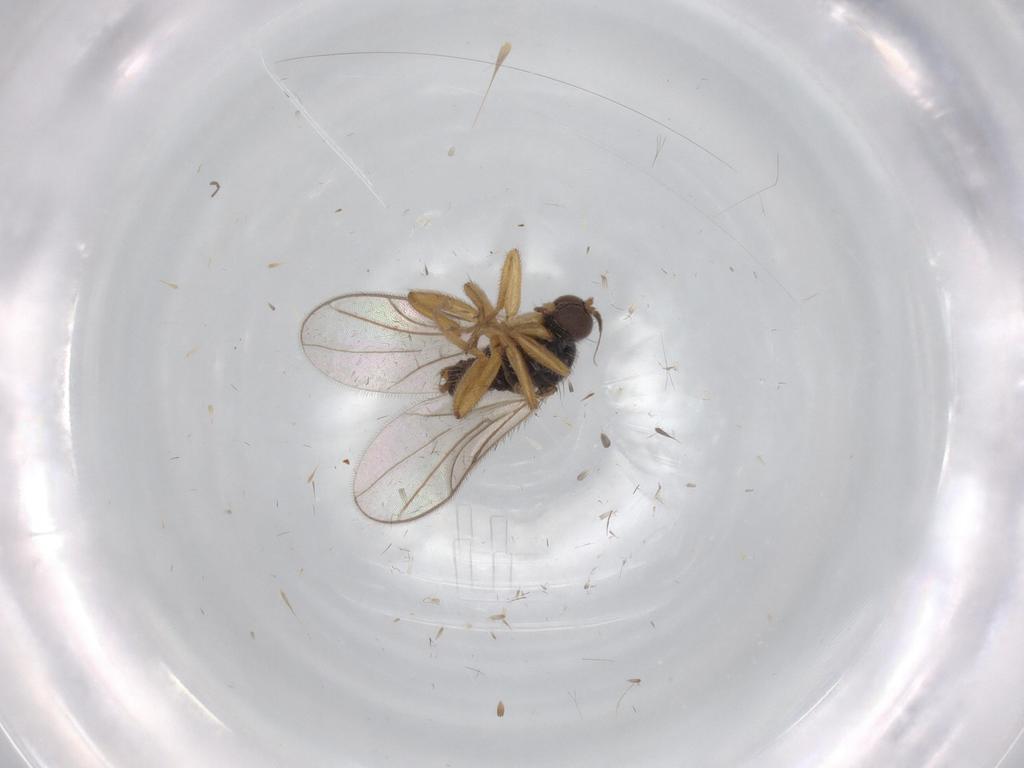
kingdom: Animalia
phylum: Arthropoda
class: Insecta
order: Diptera
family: Hybotidae
